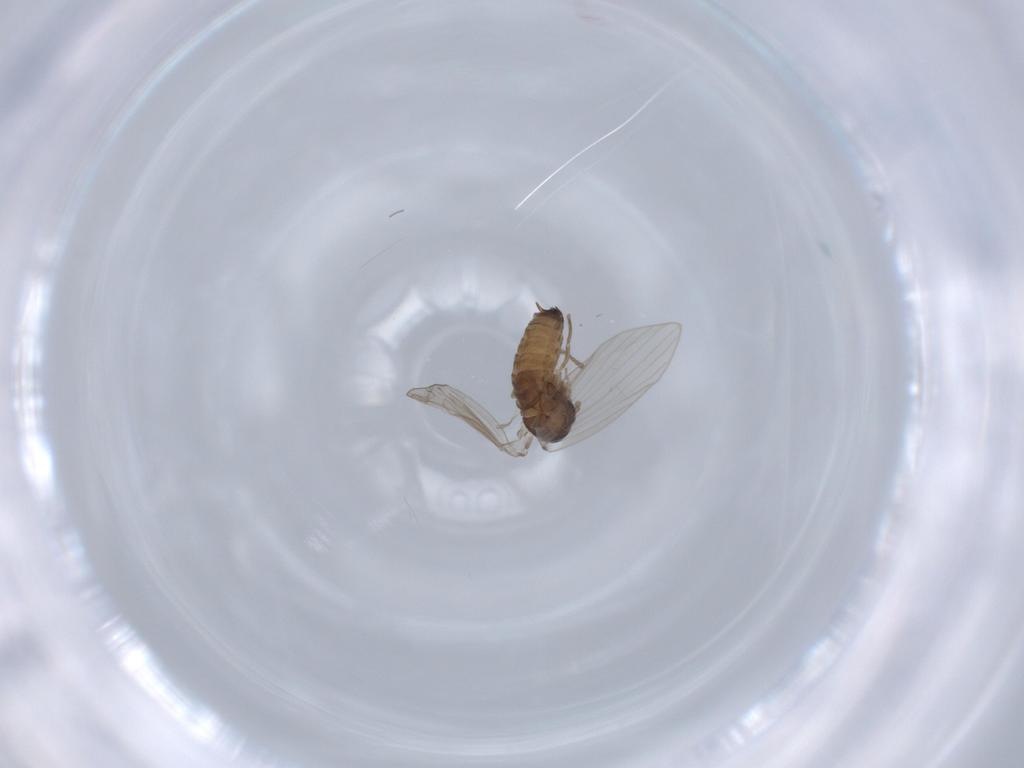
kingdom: Animalia
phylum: Arthropoda
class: Insecta
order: Diptera
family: Psychodidae
